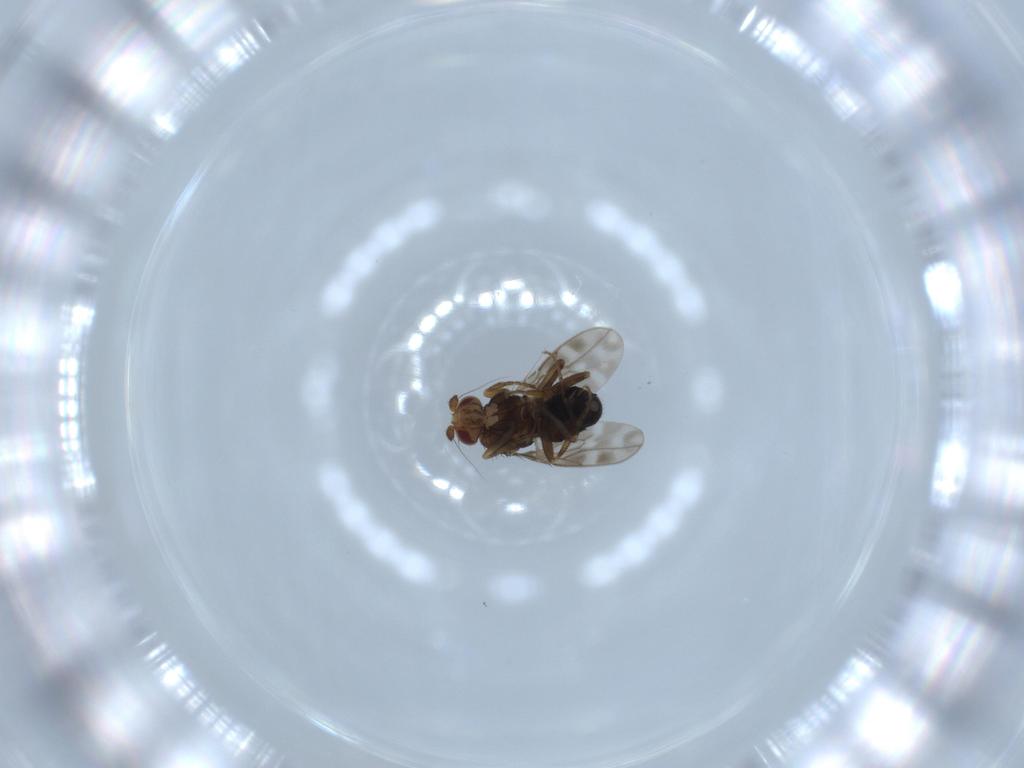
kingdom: Animalia
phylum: Arthropoda
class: Insecta
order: Diptera
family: Sphaeroceridae
